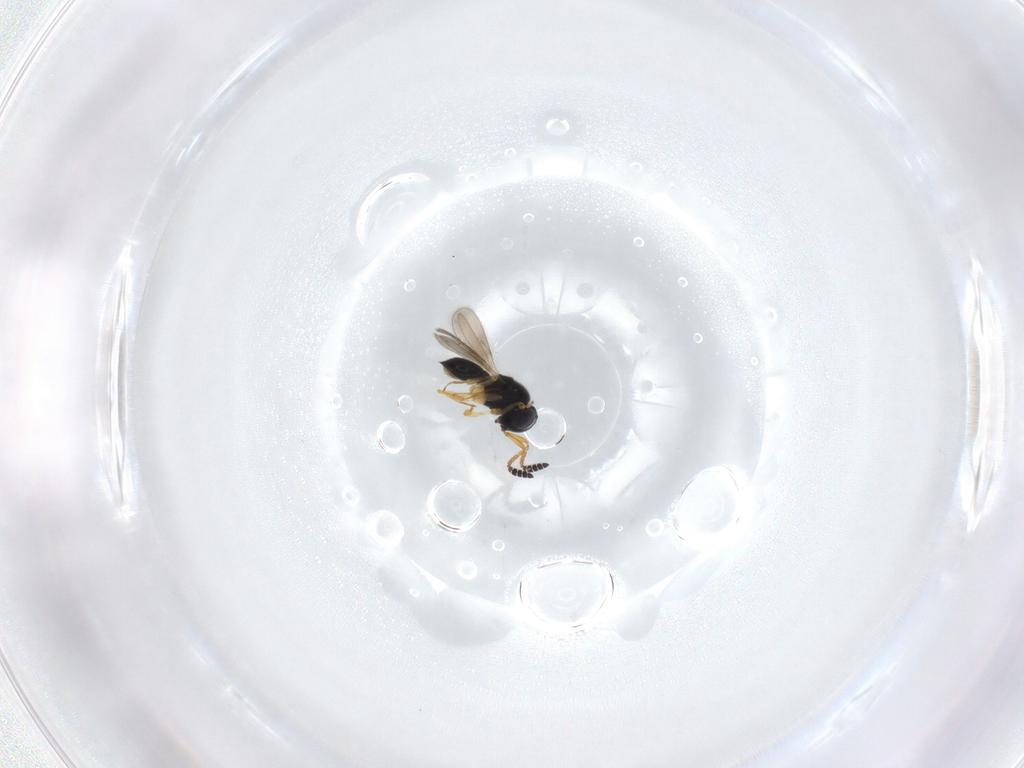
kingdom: Animalia
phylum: Arthropoda
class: Insecta
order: Hymenoptera
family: Scelionidae
